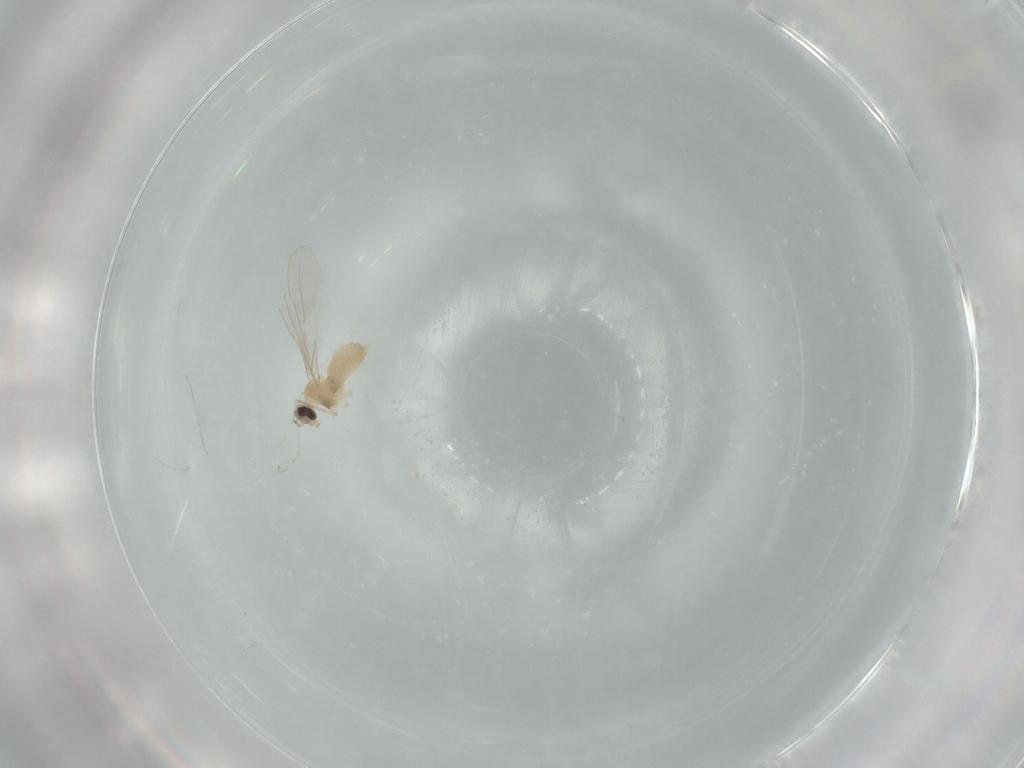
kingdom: Animalia
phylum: Arthropoda
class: Insecta
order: Diptera
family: Cecidomyiidae
